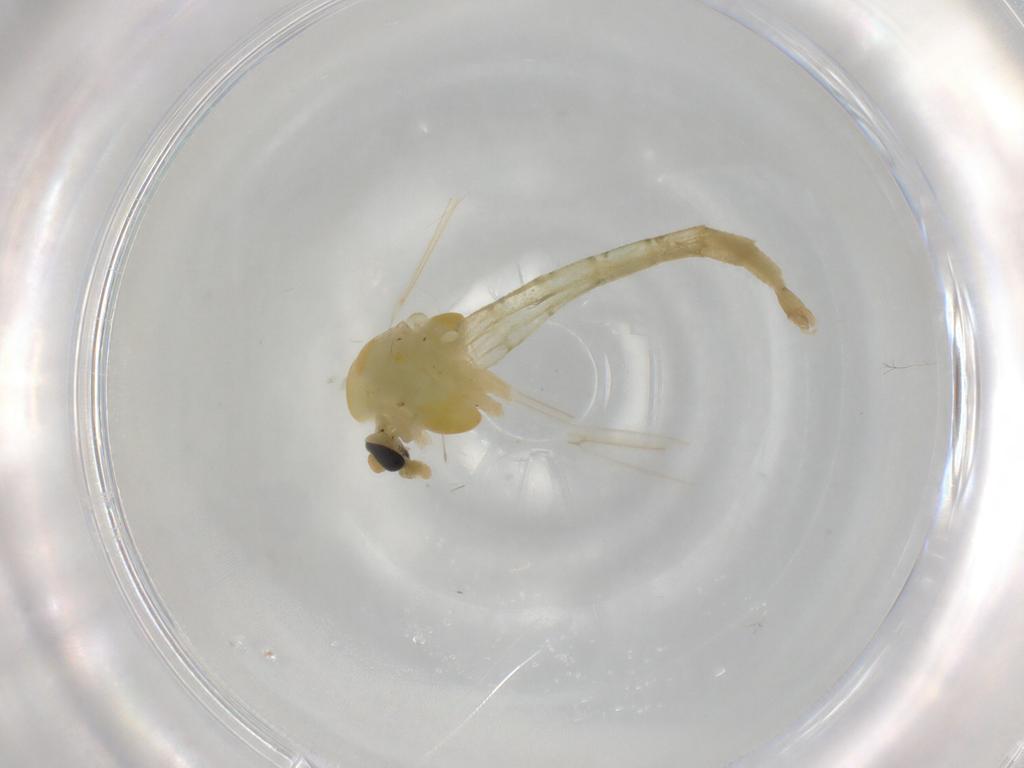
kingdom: Animalia
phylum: Arthropoda
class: Insecta
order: Diptera
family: Chironomidae
